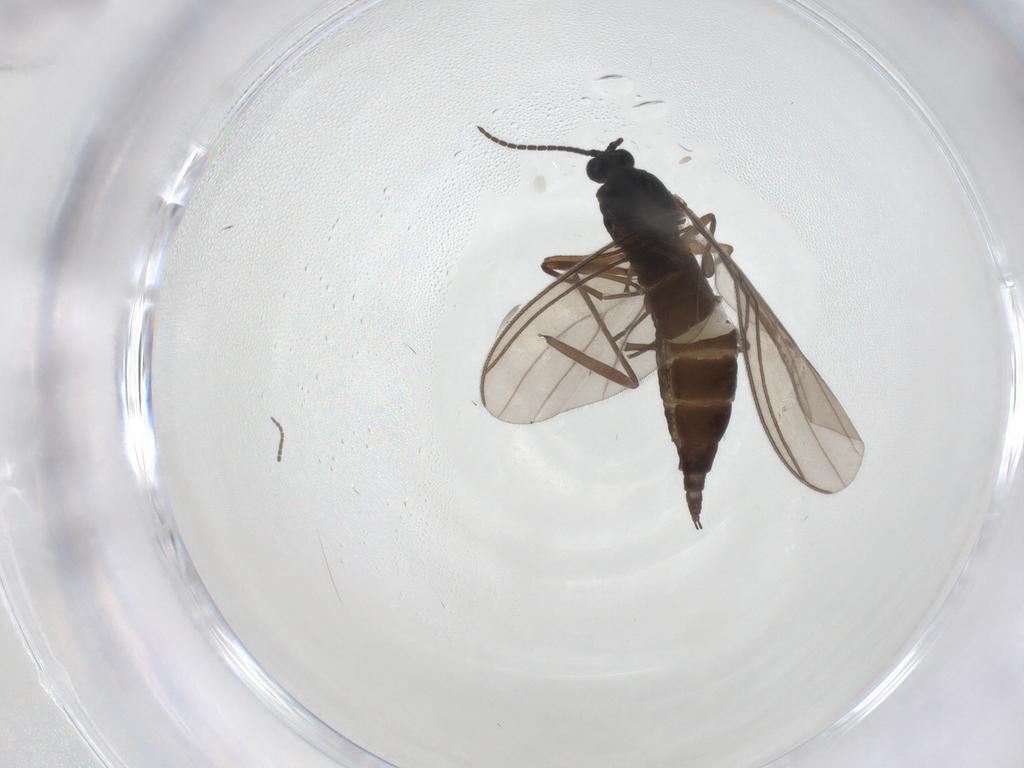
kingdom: Animalia
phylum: Arthropoda
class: Insecta
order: Diptera
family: Sciaridae
